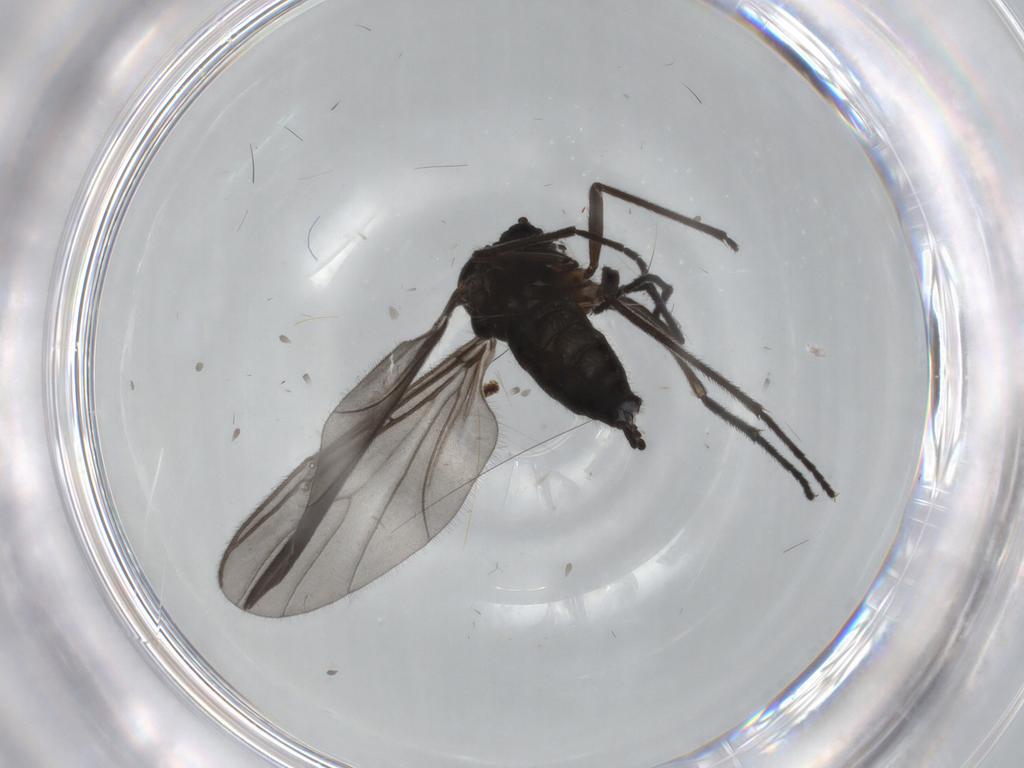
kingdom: Animalia
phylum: Arthropoda
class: Insecta
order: Diptera
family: Sciaridae
